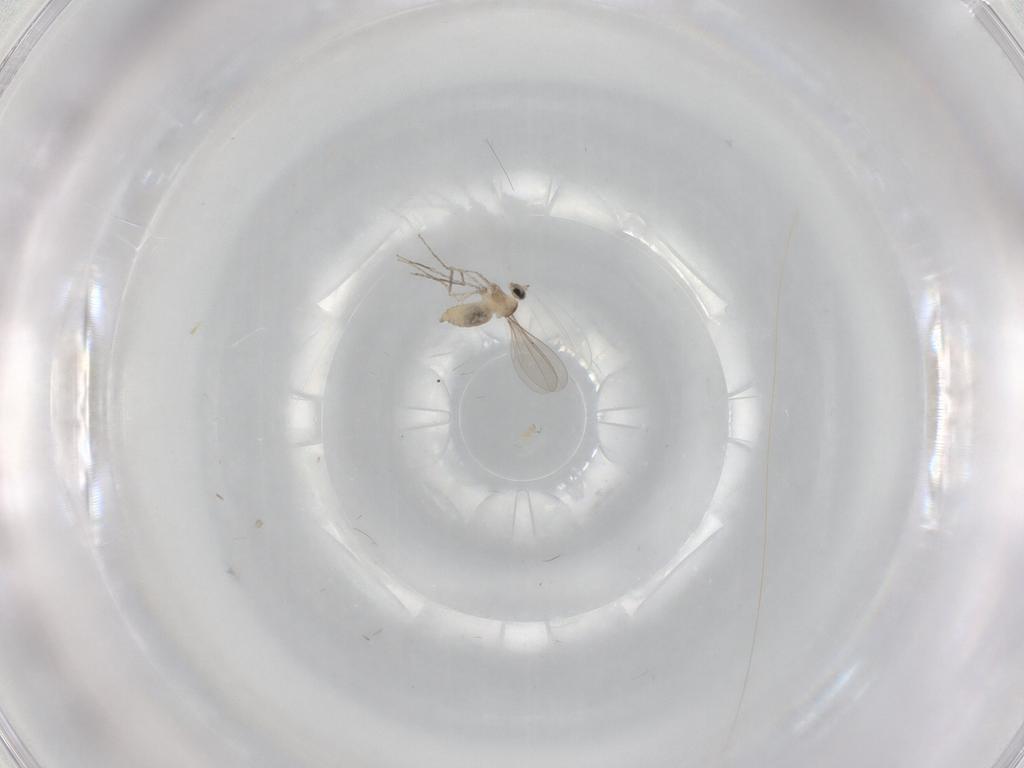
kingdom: Animalia
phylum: Arthropoda
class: Insecta
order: Diptera
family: Cecidomyiidae
